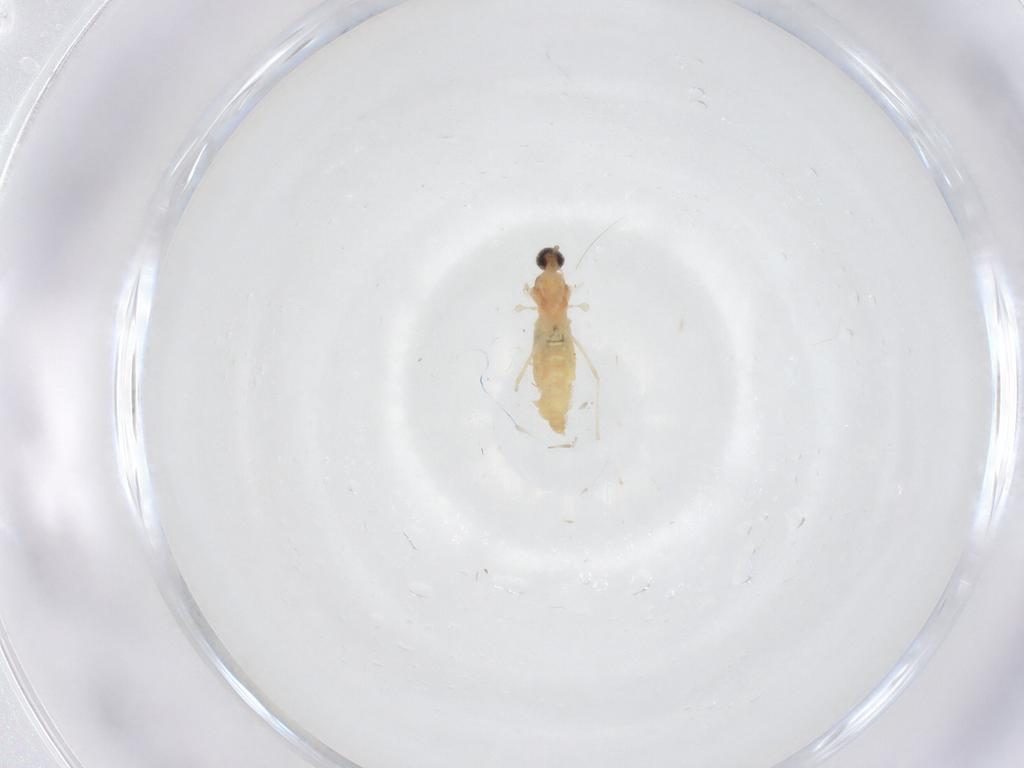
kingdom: Animalia
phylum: Arthropoda
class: Insecta
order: Diptera
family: Cecidomyiidae
